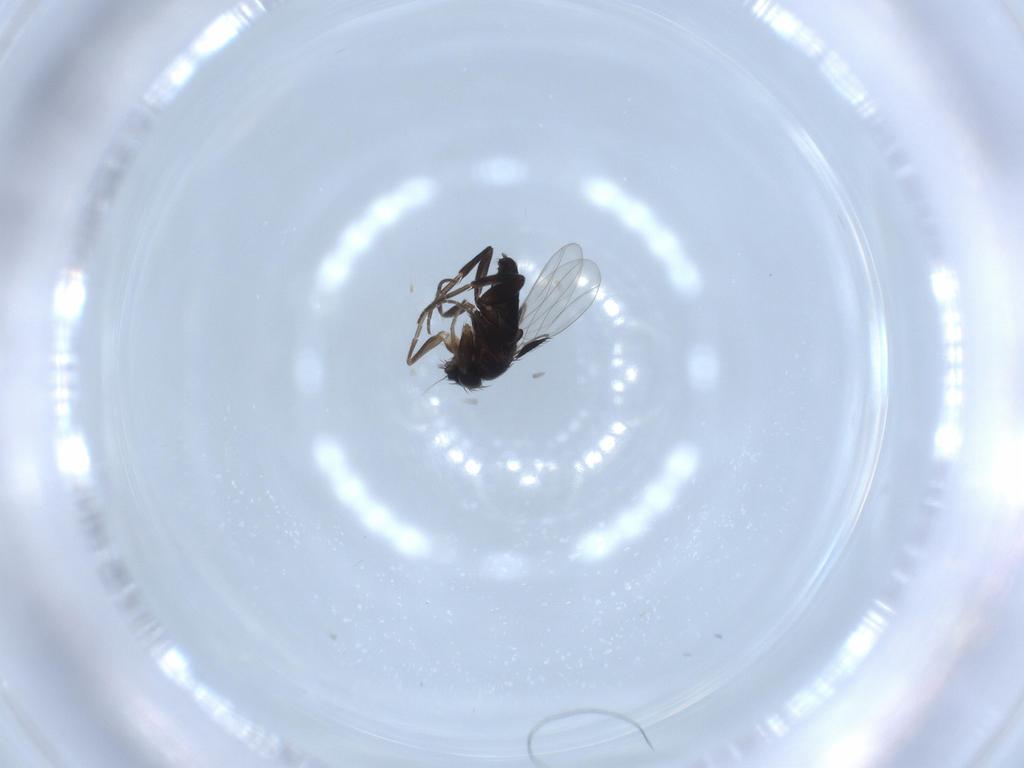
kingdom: Animalia
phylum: Arthropoda
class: Insecta
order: Diptera
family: Phoridae
